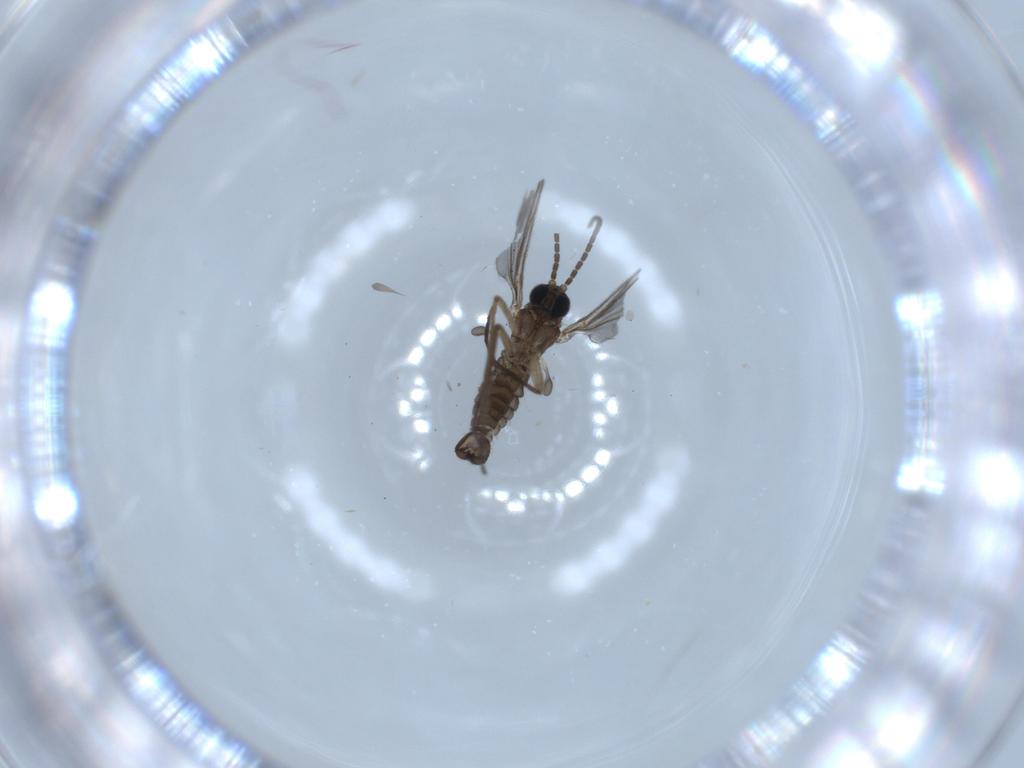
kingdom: Animalia
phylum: Arthropoda
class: Insecta
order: Diptera
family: Sciaridae
